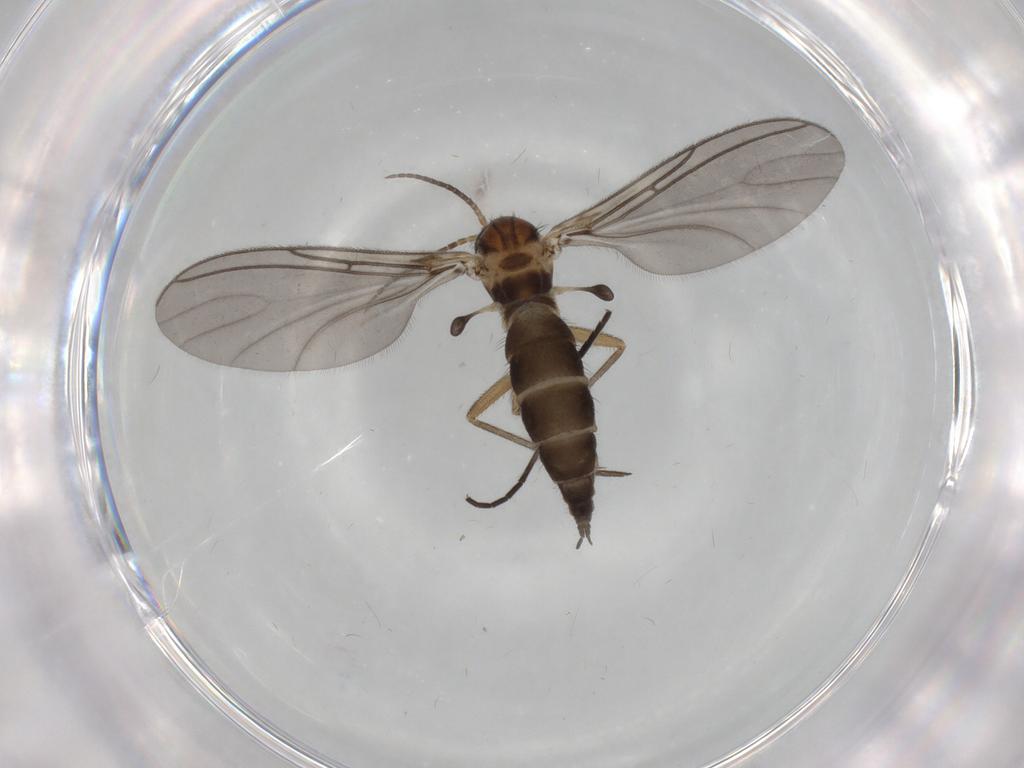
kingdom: Animalia
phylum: Arthropoda
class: Insecta
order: Diptera
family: Sciaridae
